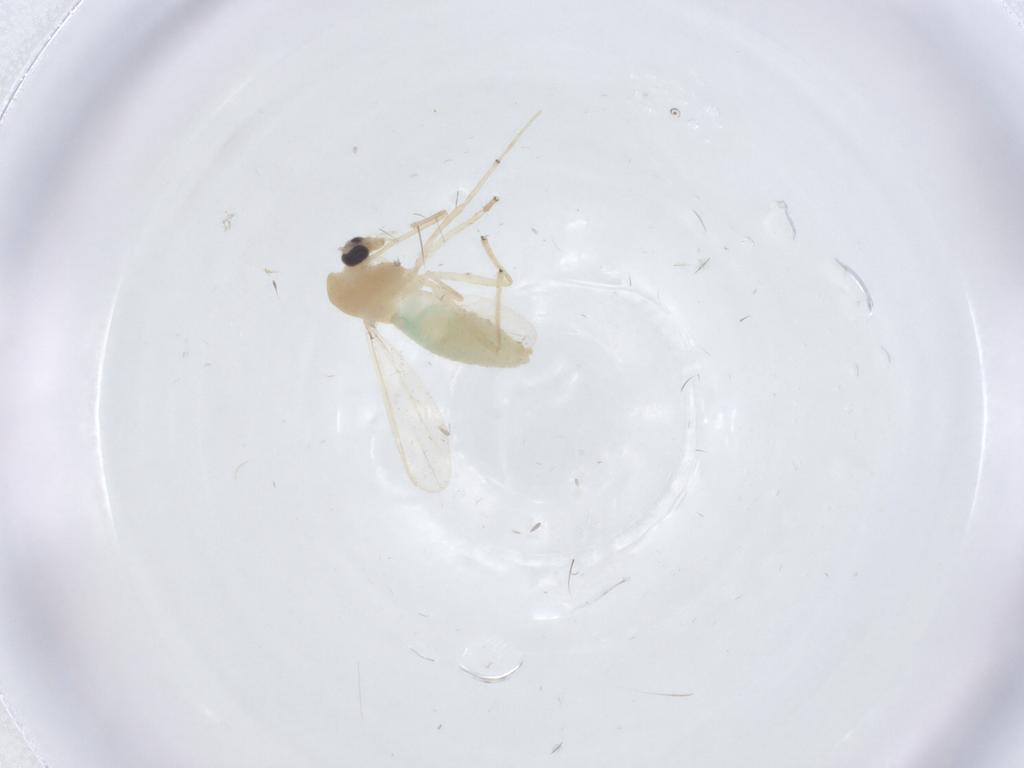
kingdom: Animalia
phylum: Arthropoda
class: Insecta
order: Diptera
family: Chironomidae
